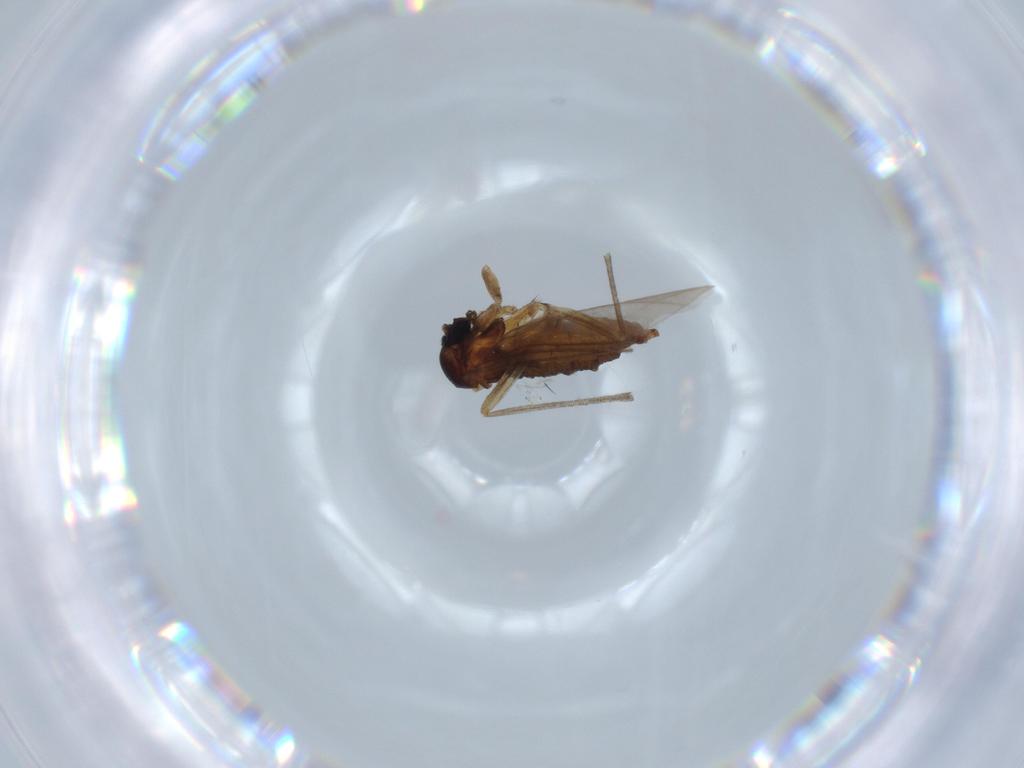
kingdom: Animalia
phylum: Arthropoda
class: Insecta
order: Diptera
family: Sciaridae
